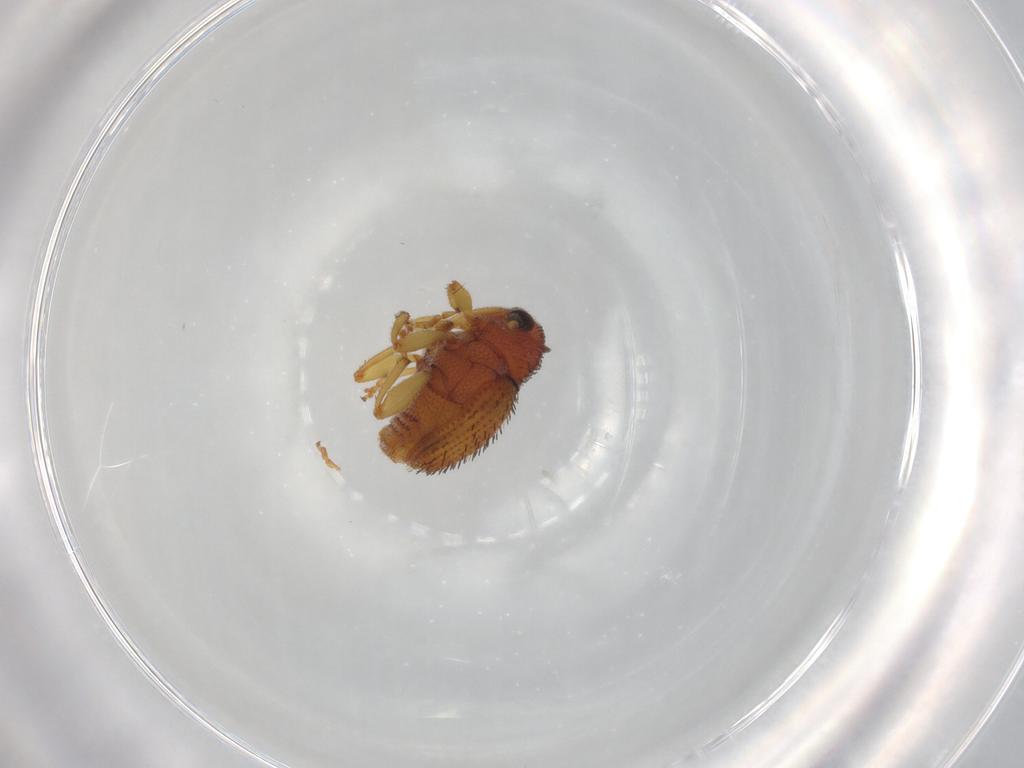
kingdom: Animalia
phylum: Arthropoda
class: Insecta
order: Coleoptera
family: Curculionidae
